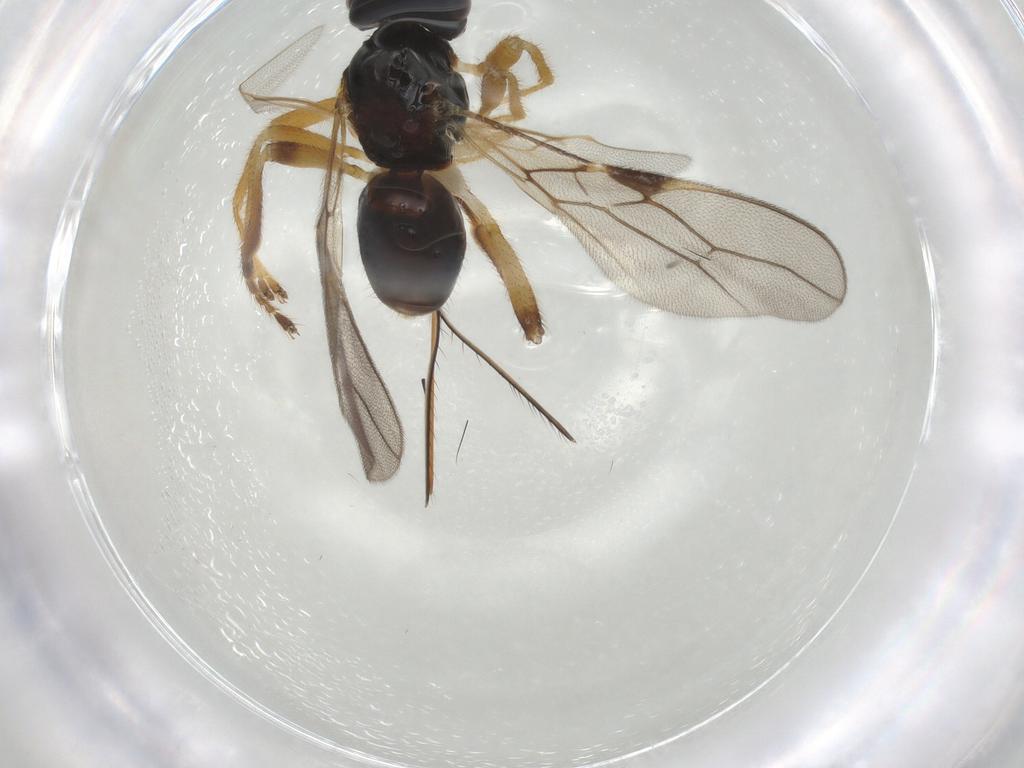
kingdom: Animalia
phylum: Arthropoda
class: Insecta
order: Hymenoptera
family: Braconidae
